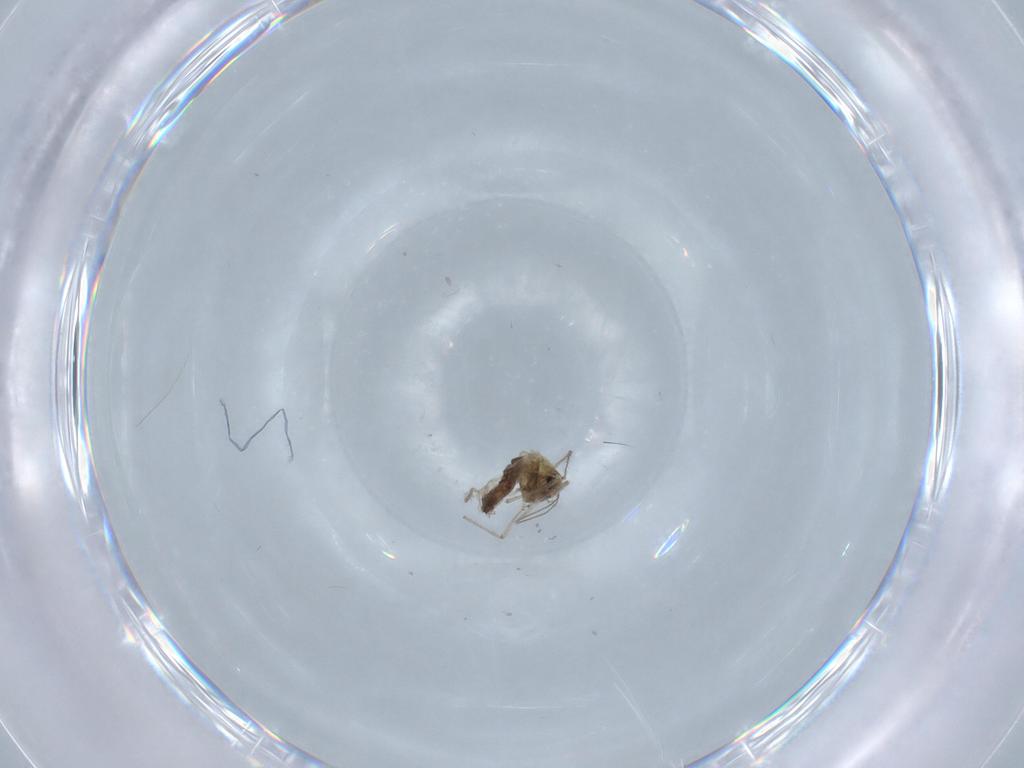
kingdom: Animalia
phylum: Arthropoda
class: Insecta
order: Diptera
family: Chironomidae
